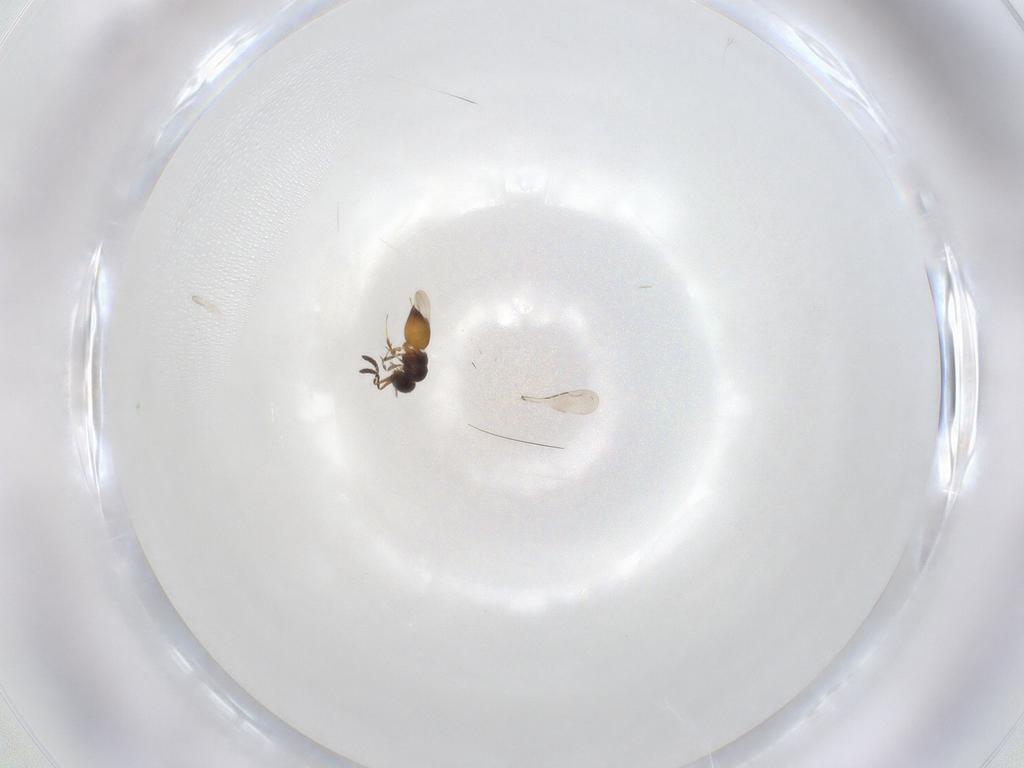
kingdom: Animalia
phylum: Arthropoda
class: Insecta
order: Hymenoptera
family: Ceraphronidae
